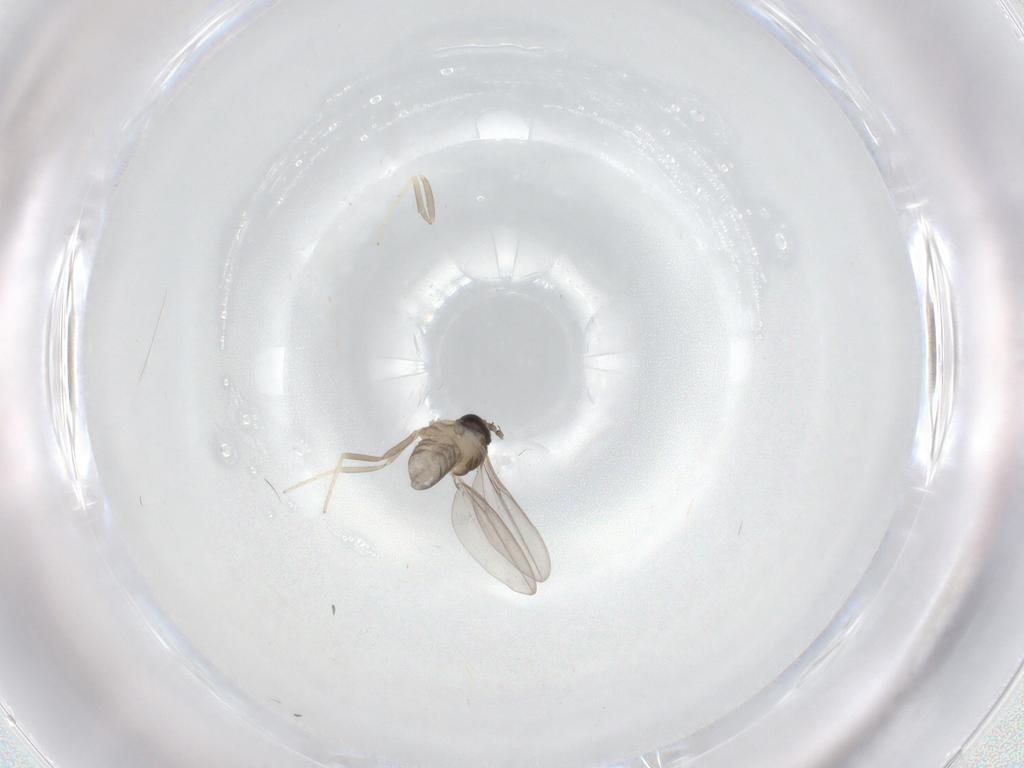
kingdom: Animalia
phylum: Arthropoda
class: Insecta
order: Diptera
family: Cecidomyiidae
